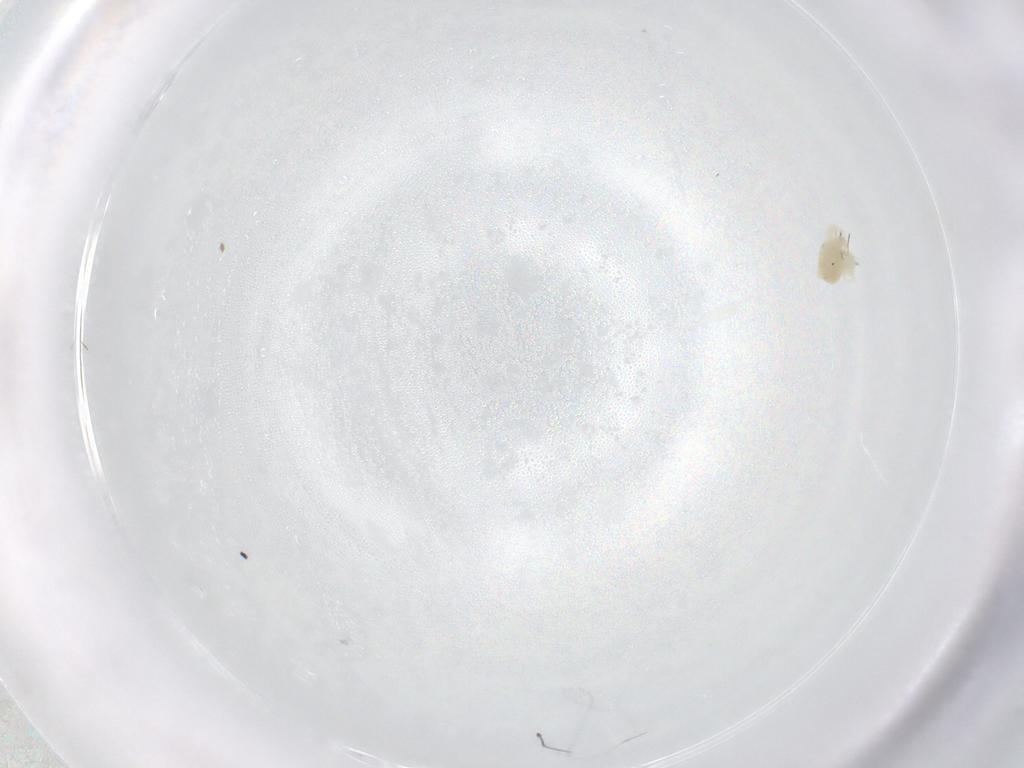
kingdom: Animalia
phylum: Arthropoda
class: Arachnida
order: Trombidiformes
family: Anystidae
